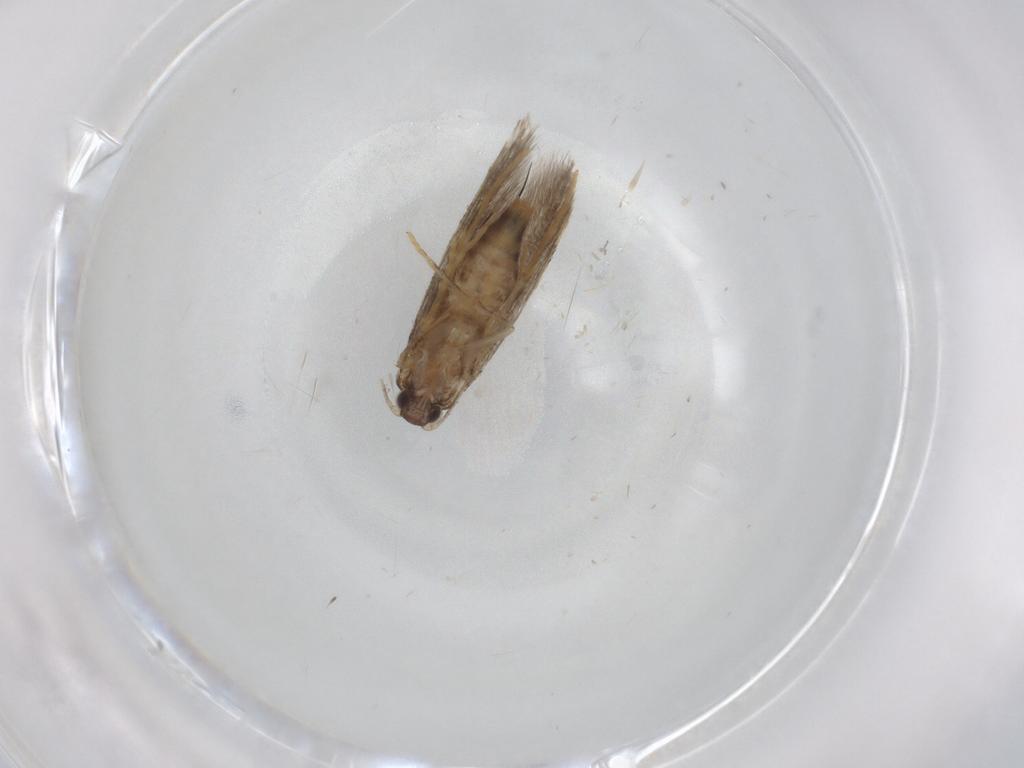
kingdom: Animalia
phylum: Arthropoda
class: Insecta
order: Lepidoptera
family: Tineidae
